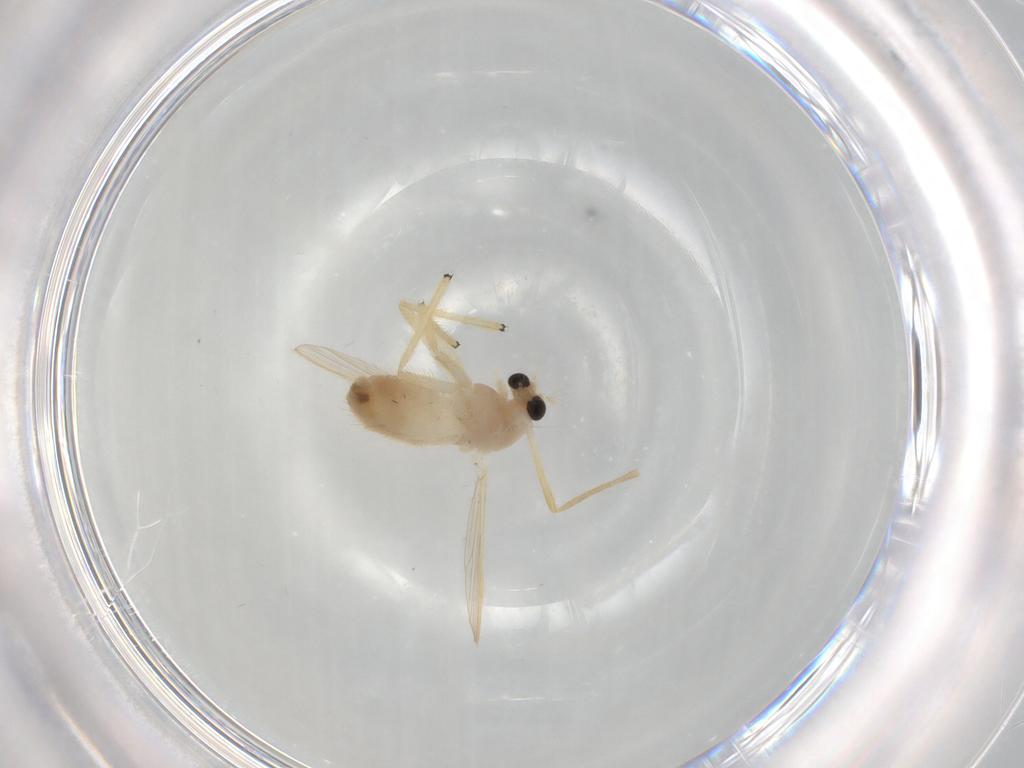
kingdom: Animalia
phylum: Arthropoda
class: Insecta
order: Diptera
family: Chironomidae
